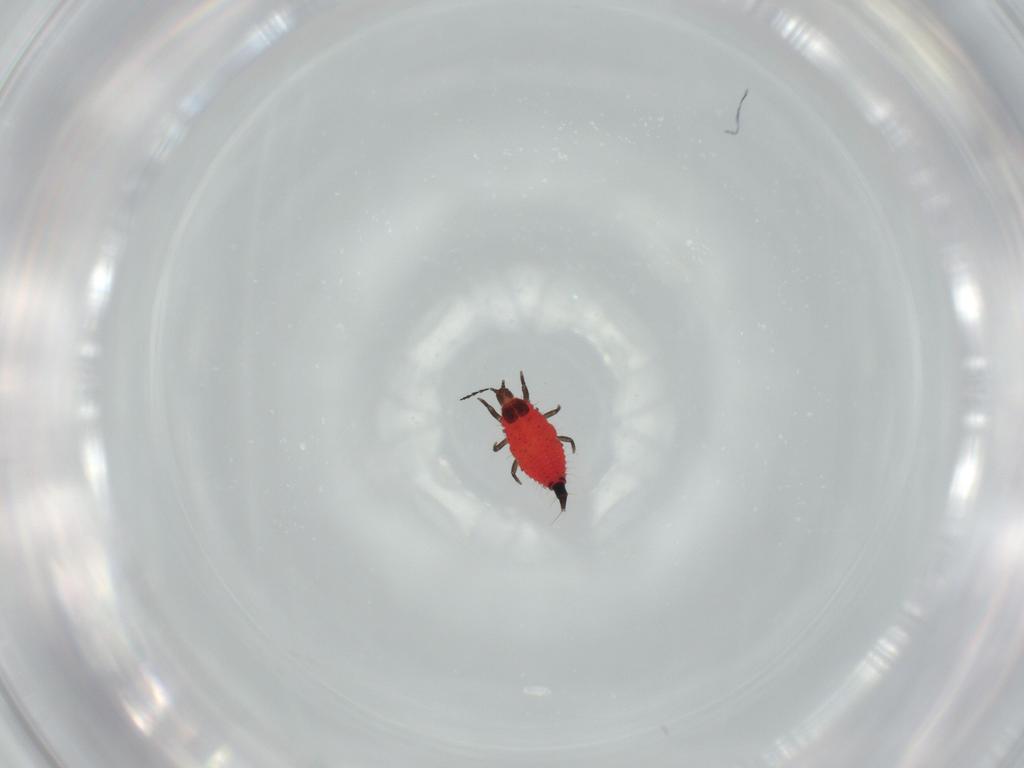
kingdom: Animalia
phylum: Arthropoda
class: Insecta
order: Thysanoptera
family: Phlaeothripidae
